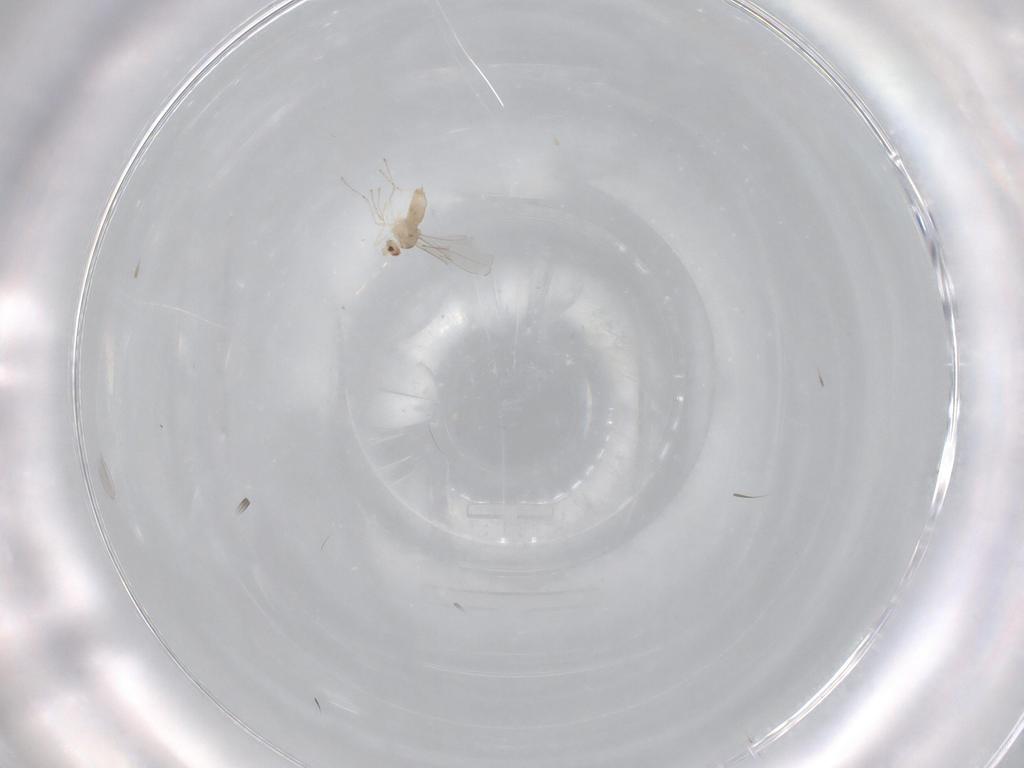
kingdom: Animalia
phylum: Arthropoda
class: Insecta
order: Diptera
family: Cecidomyiidae
